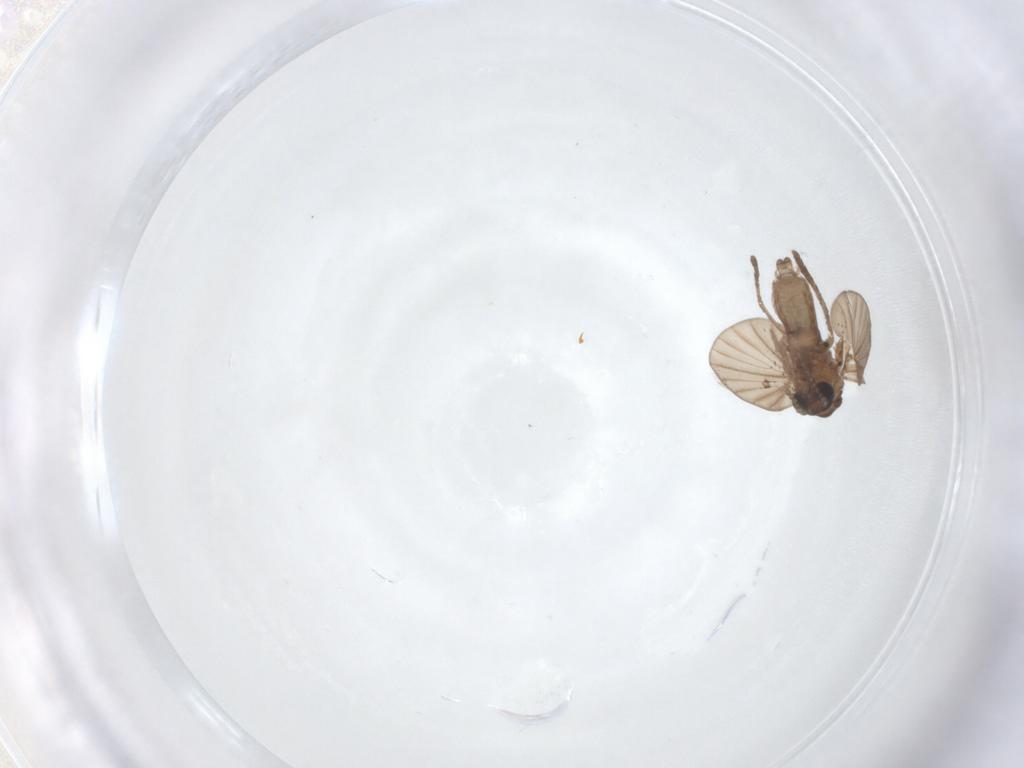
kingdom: Animalia
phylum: Arthropoda
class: Insecta
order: Diptera
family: Psychodidae
